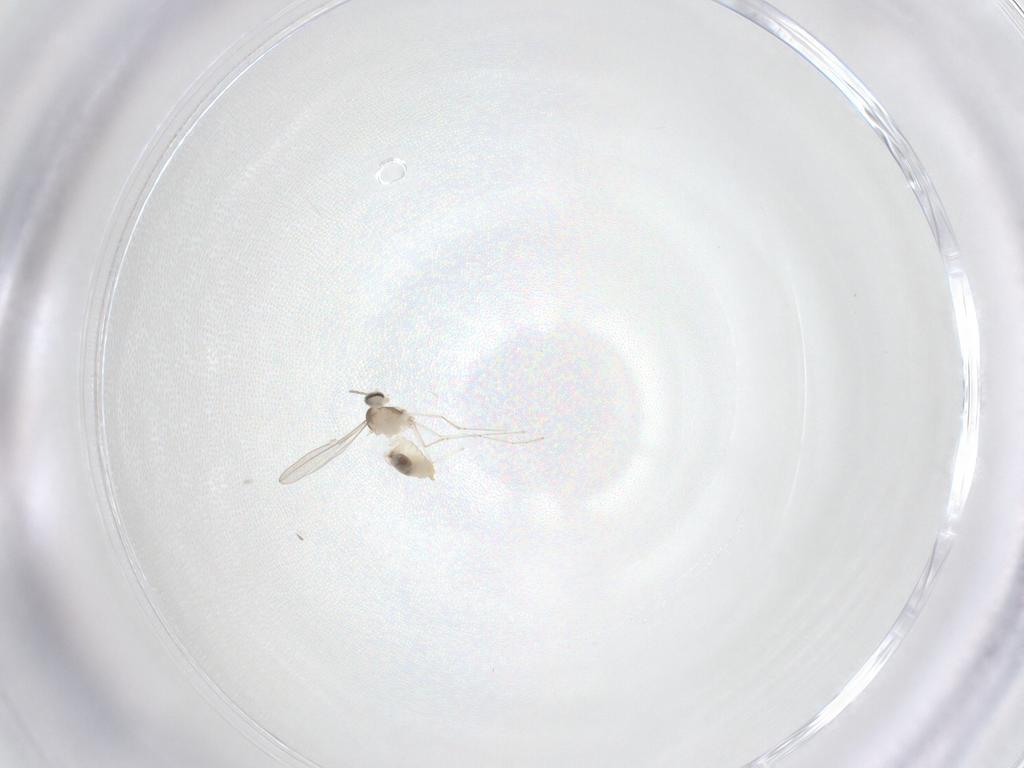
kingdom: Animalia
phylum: Arthropoda
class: Insecta
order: Diptera
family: Cecidomyiidae
